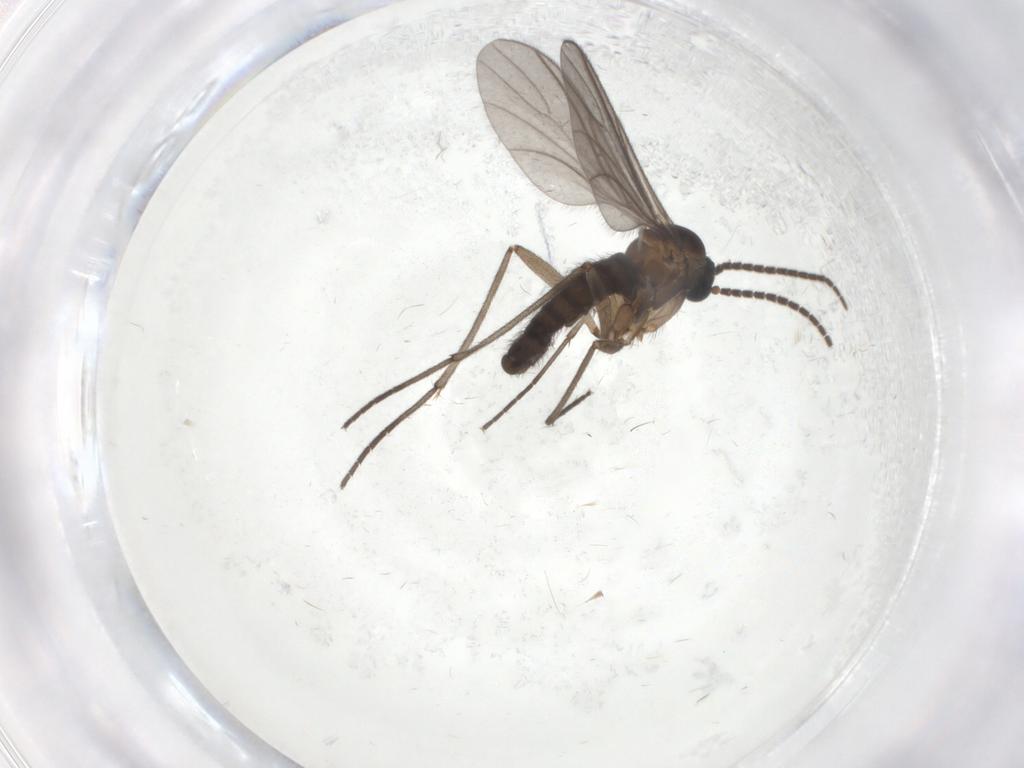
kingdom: Animalia
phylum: Arthropoda
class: Insecta
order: Diptera
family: Sciaridae
